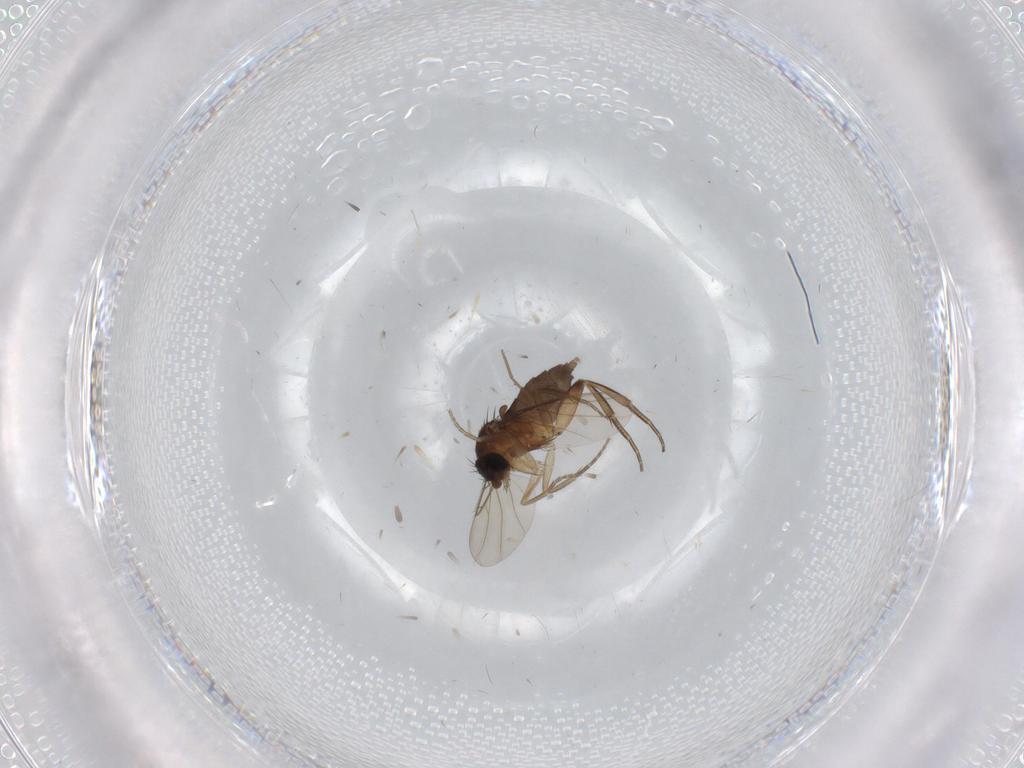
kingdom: Animalia
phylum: Arthropoda
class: Insecta
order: Diptera
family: Phoridae
